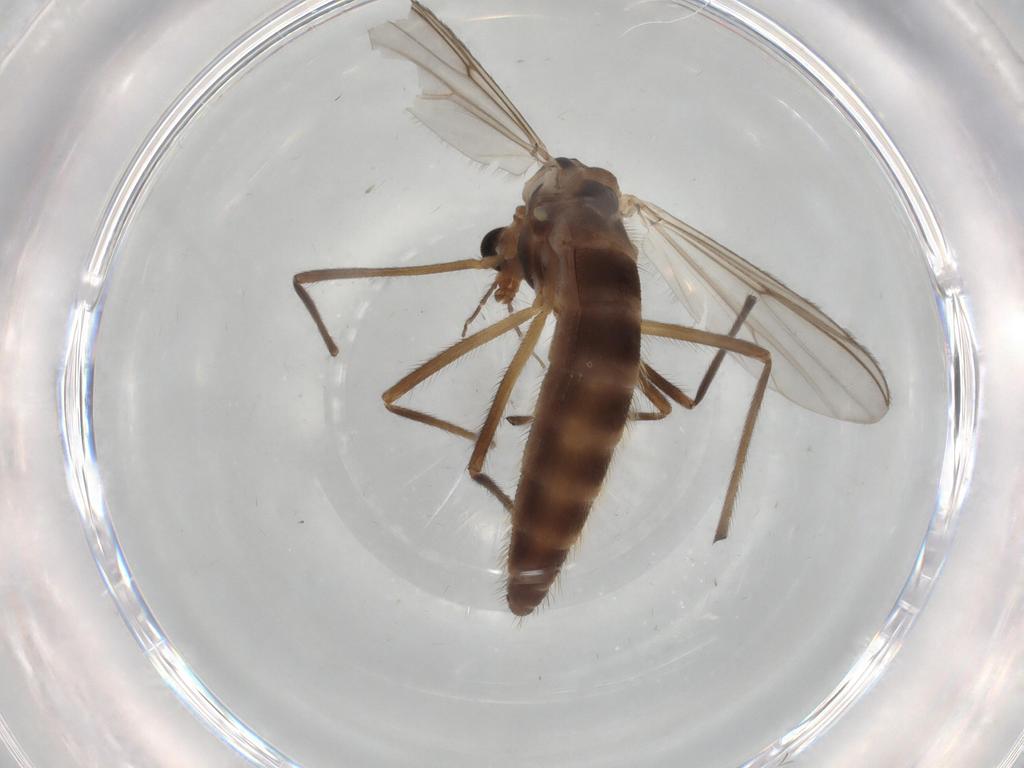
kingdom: Animalia
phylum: Arthropoda
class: Insecta
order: Diptera
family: Chironomidae
